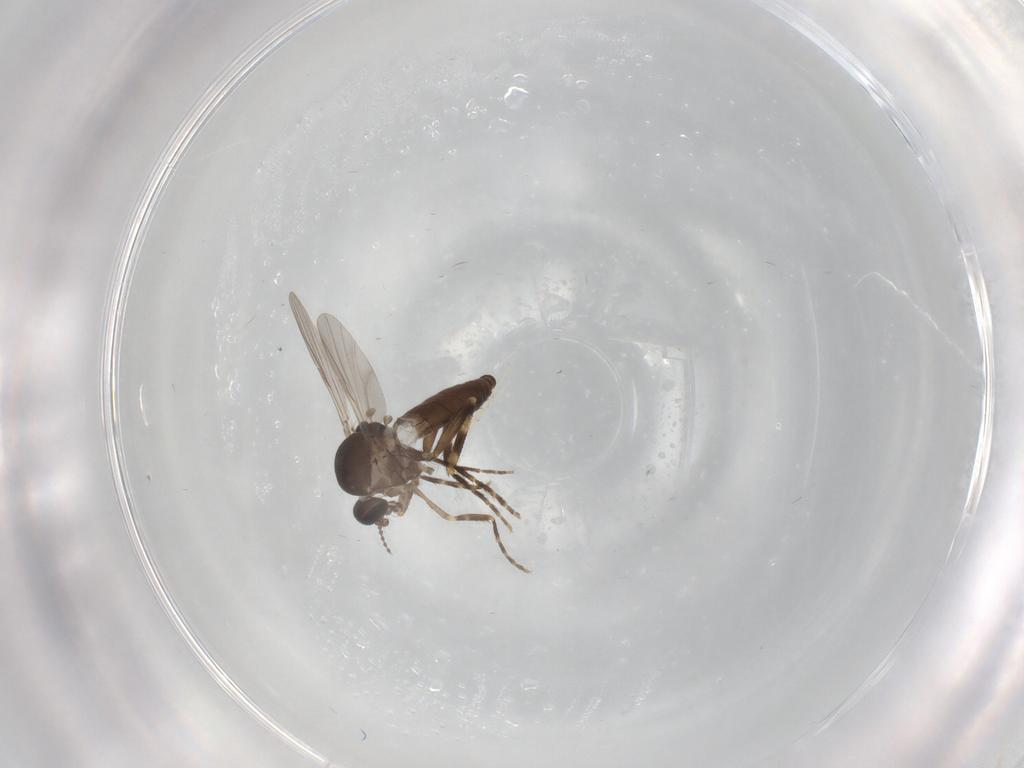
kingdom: Animalia
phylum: Arthropoda
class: Insecta
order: Diptera
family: Ceratopogonidae
